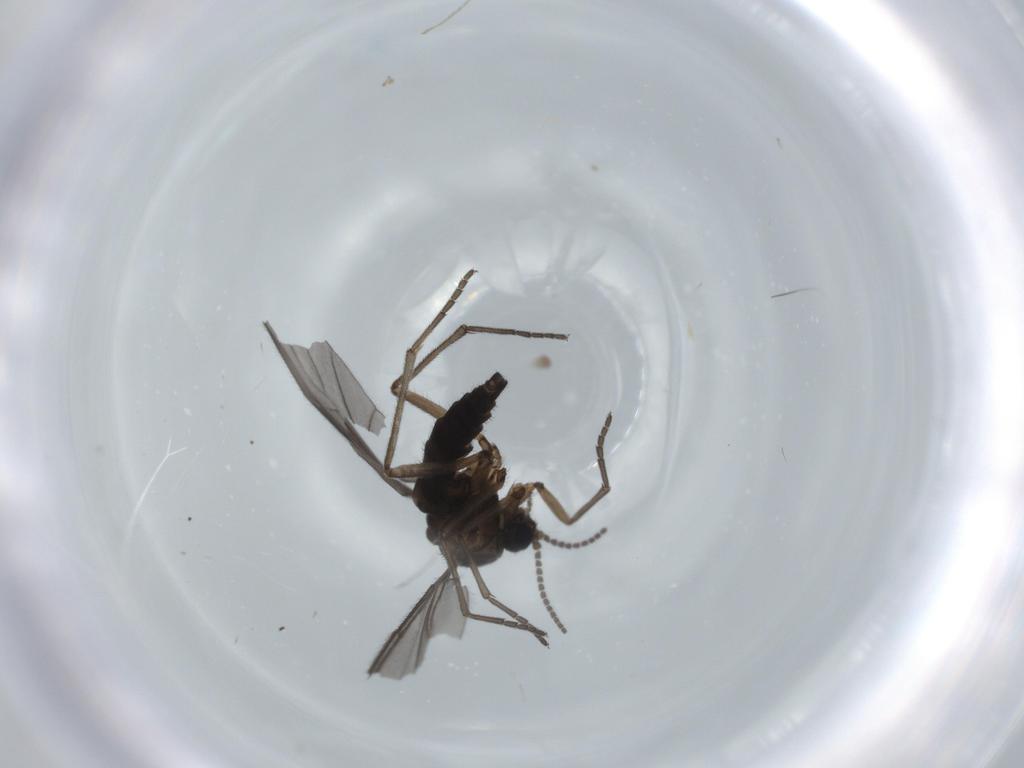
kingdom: Animalia
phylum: Arthropoda
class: Insecta
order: Diptera
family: Sciaridae
